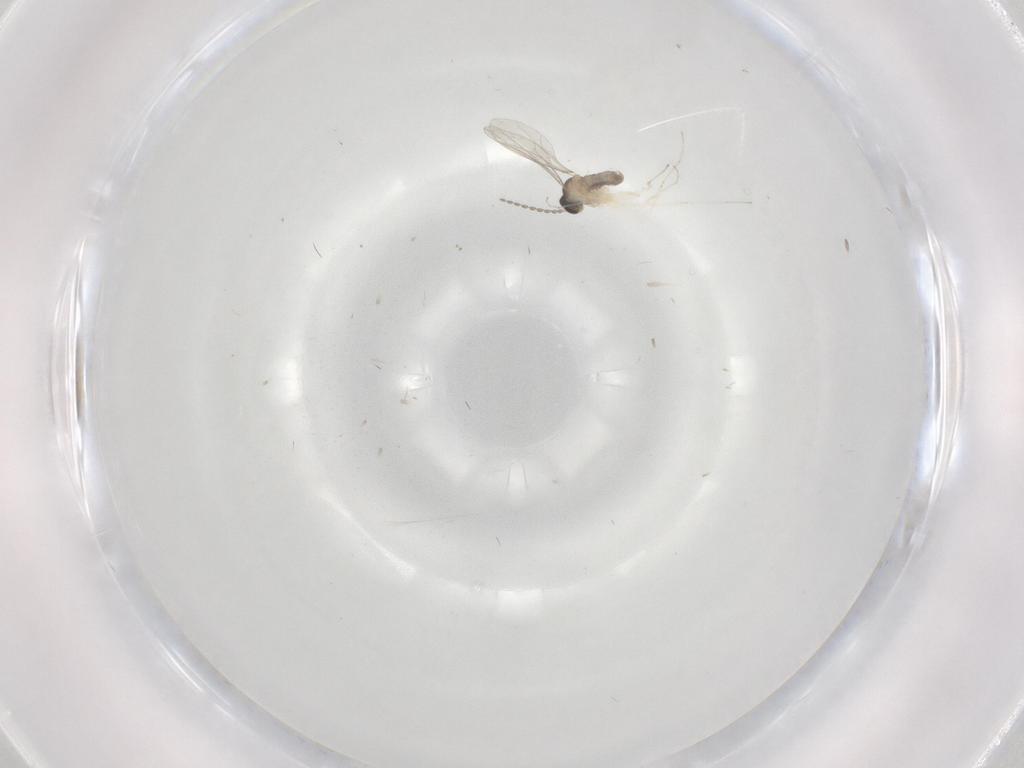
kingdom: Animalia
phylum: Arthropoda
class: Insecta
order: Diptera
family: Cecidomyiidae
